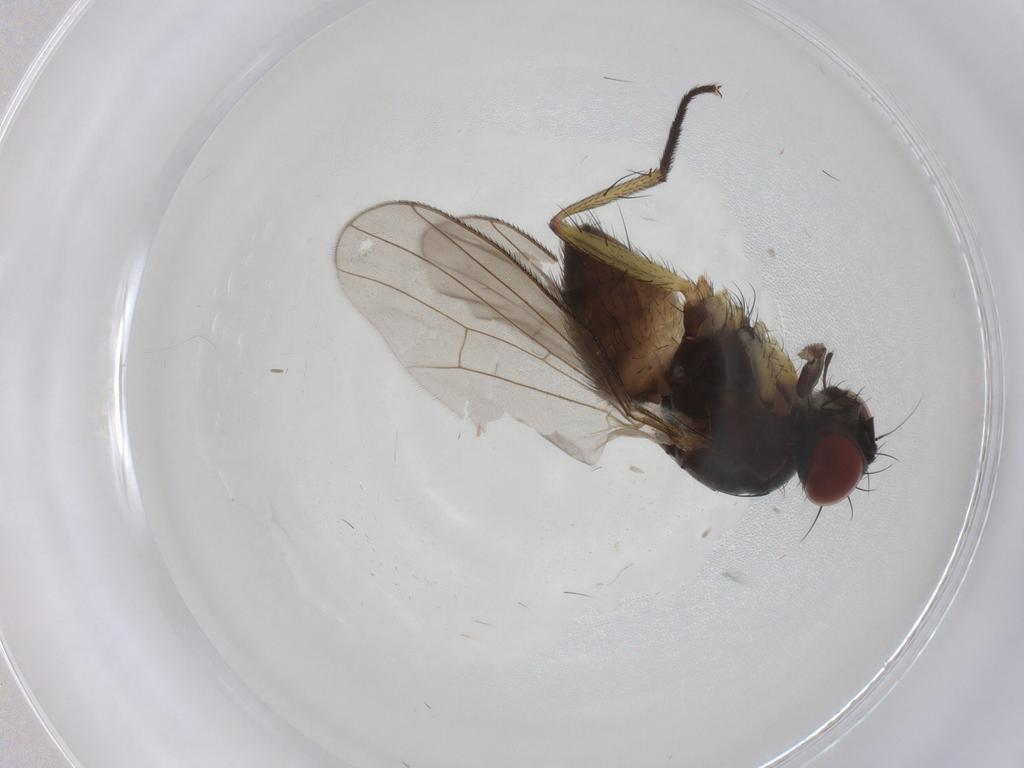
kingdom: Animalia
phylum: Arthropoda
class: Insecta
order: Diptera
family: Muscidae
